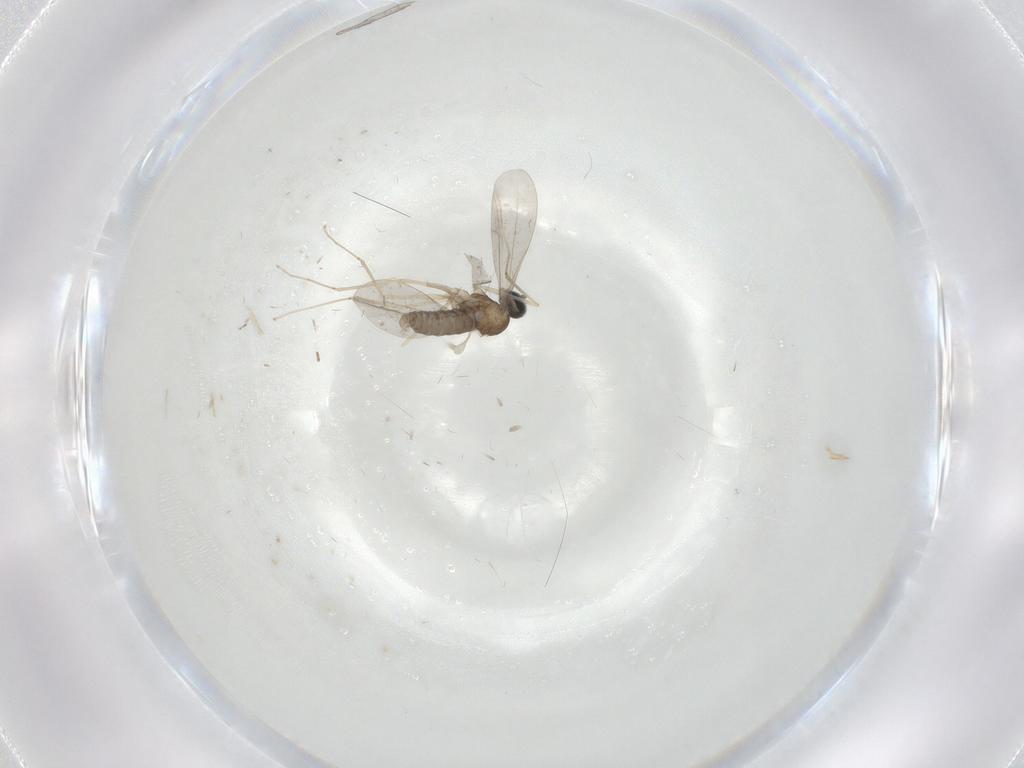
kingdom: Animalia
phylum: Arthropoda
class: Insecta
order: Diptera
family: Cecidomyiidae
